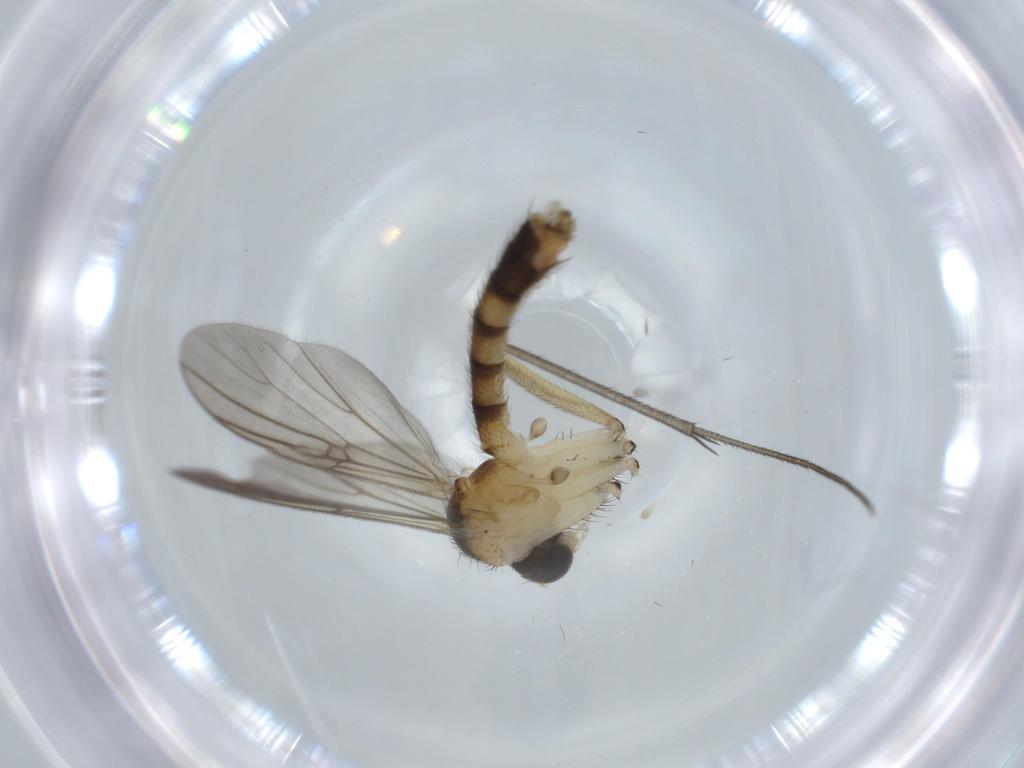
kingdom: Animalia
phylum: Arthropoda
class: Insecta
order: Diptera
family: Mycetophilidae
